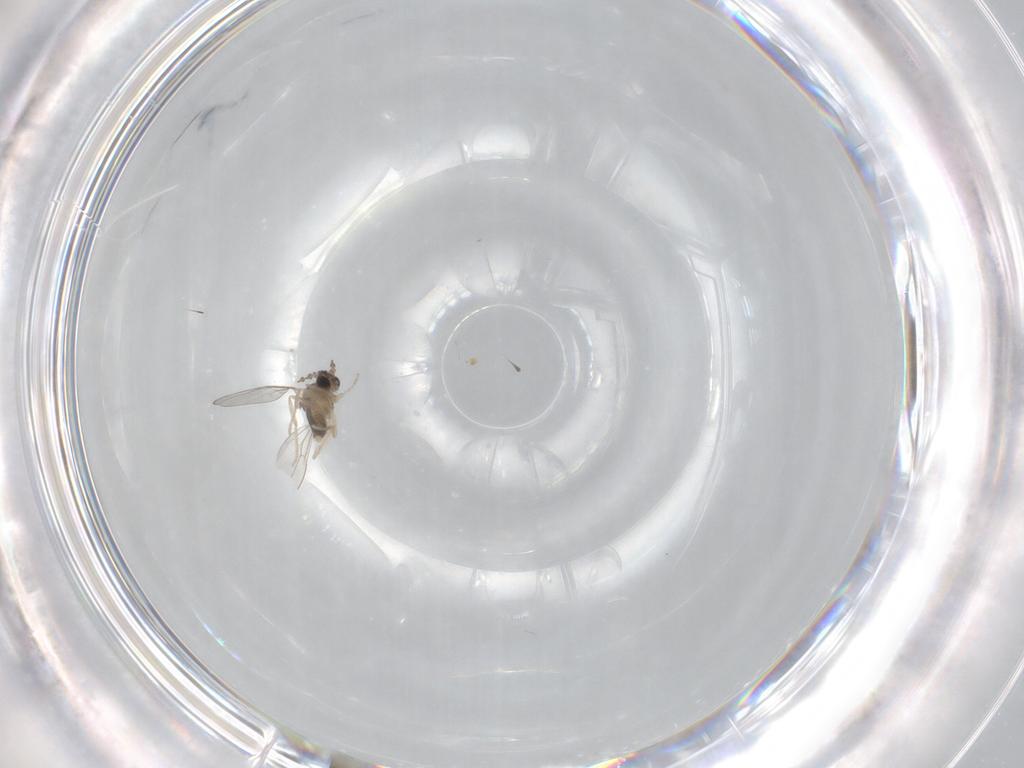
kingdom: Animalia
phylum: Arthropoda
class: Insecta
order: Diptera
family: Cecidomyiidae
